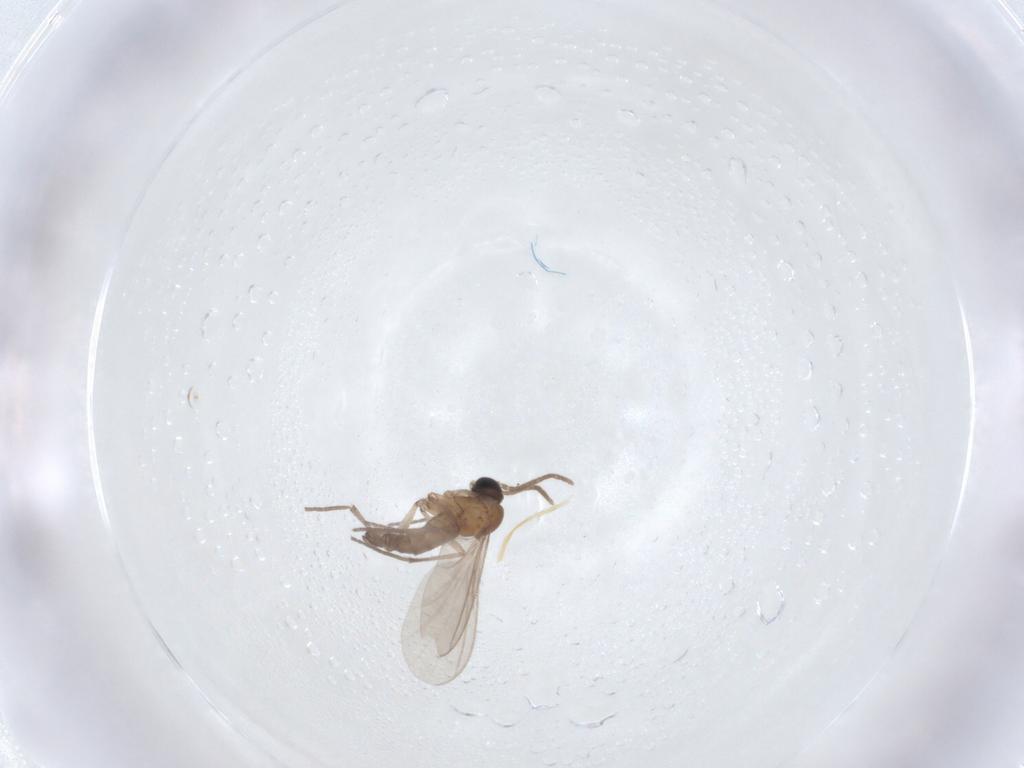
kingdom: Animalia
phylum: Arthropoda
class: Insecta
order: Diptera
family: Sciaridae
